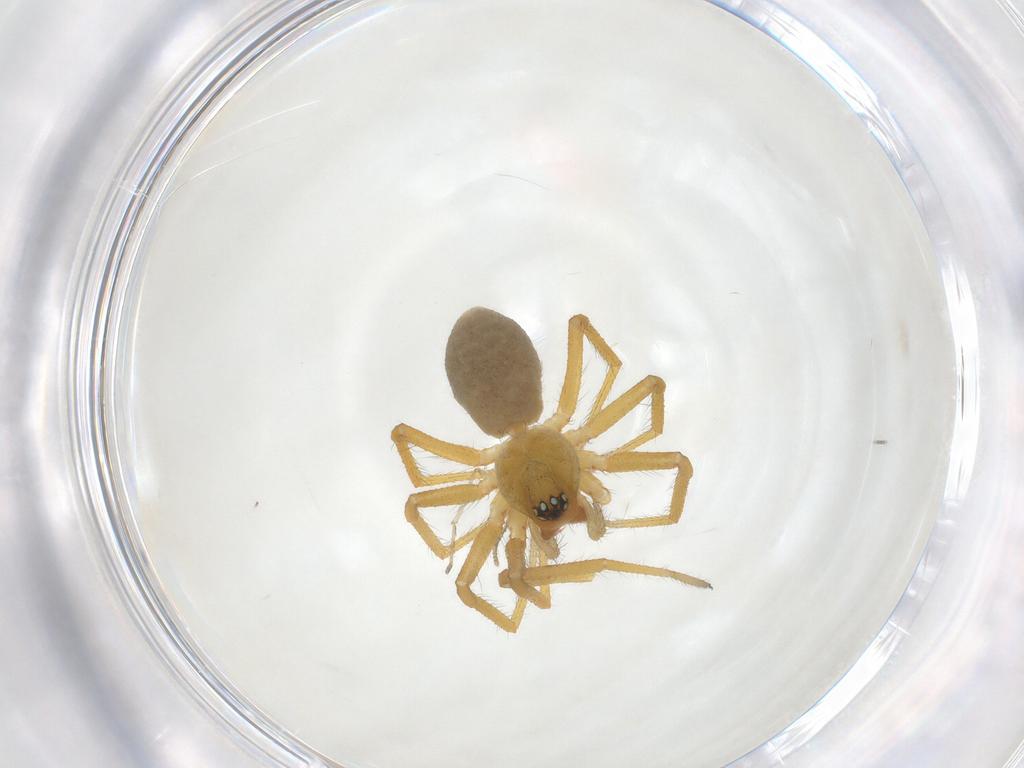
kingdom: Animalia
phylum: Arthropoda
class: Arachnida
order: Araneae
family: Linyphiidae
